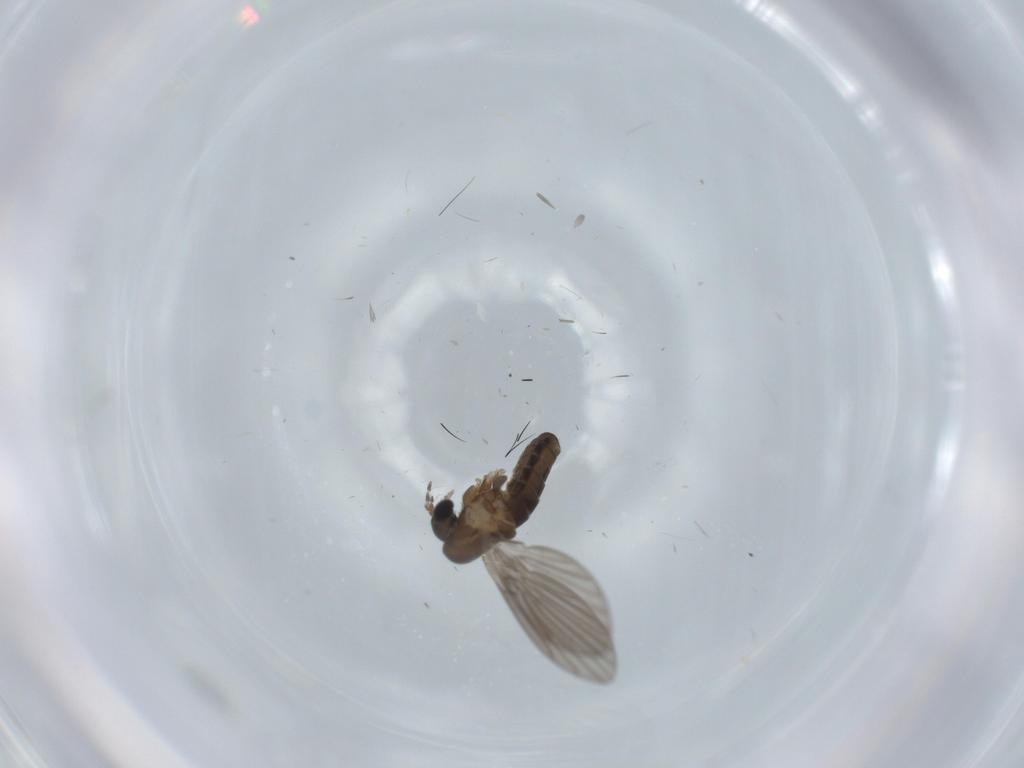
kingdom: Animalia
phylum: Arthropoda
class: Insecta
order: Diptera
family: Psychodidae
